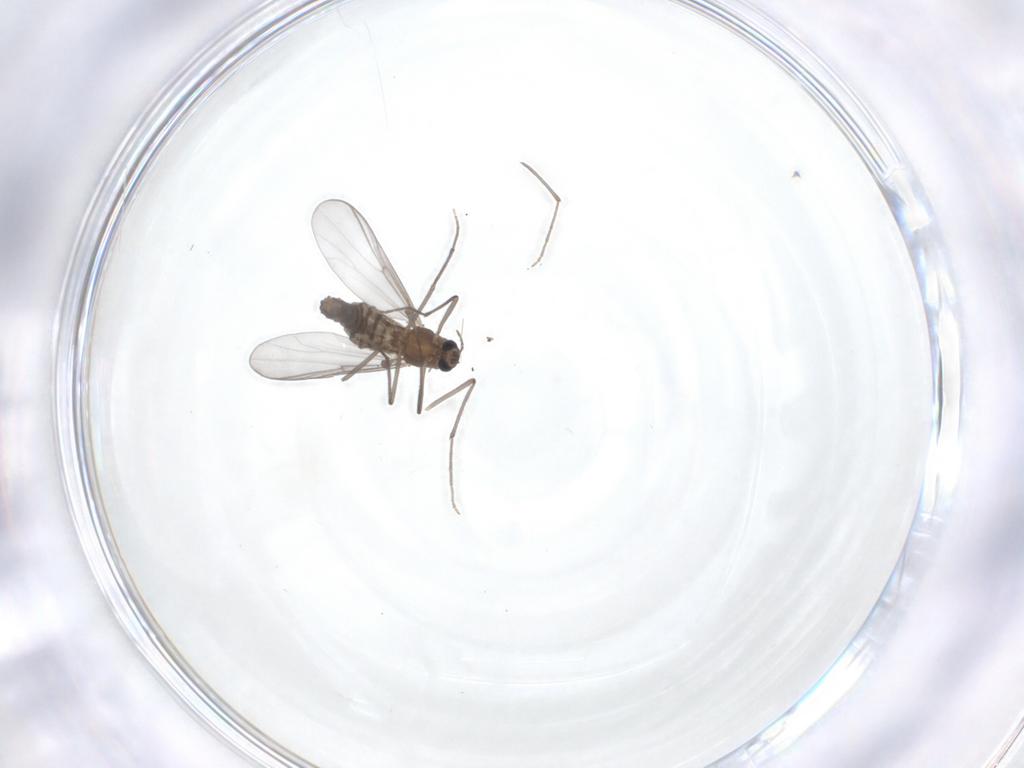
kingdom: Animalia
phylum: Arthropoda
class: Insecta
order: Diptera
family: Chironomidae
